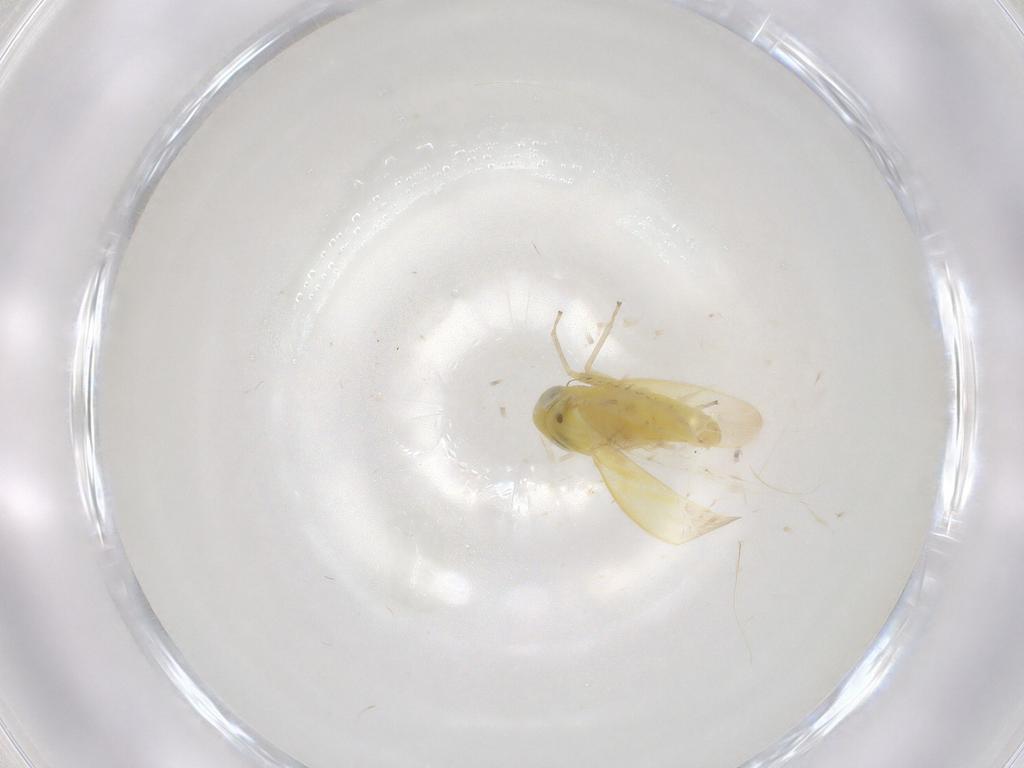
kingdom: Animalia
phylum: Arthropoda
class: Insecta
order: Hemiptera
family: Cicadellidae
